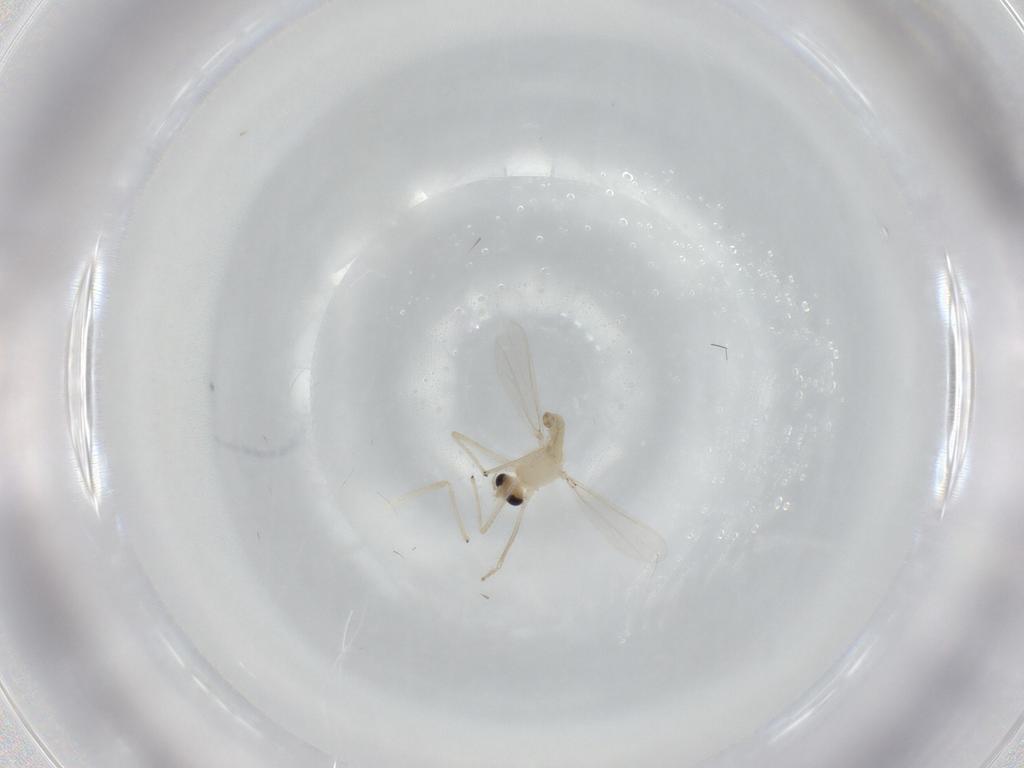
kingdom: Animalia
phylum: Arthropoda
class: Insecta
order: Diptera
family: Chironomidae
